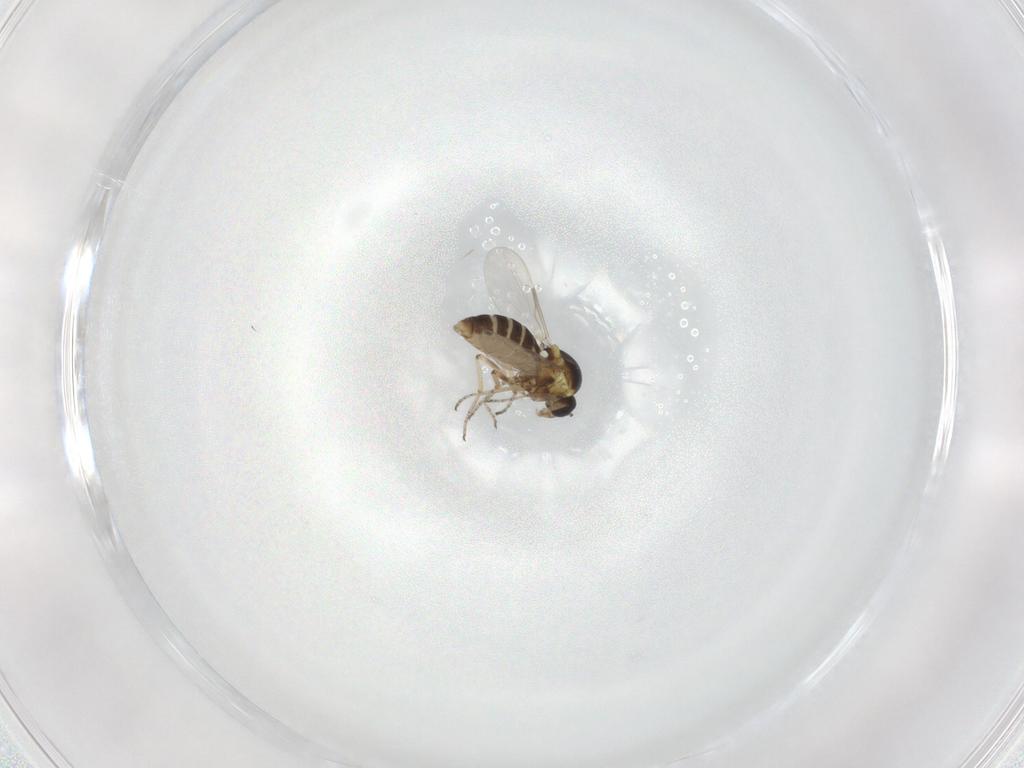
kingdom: Animalia
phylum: Arthropoda
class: Insecta
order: Diptera
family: Ceratopogonidae
